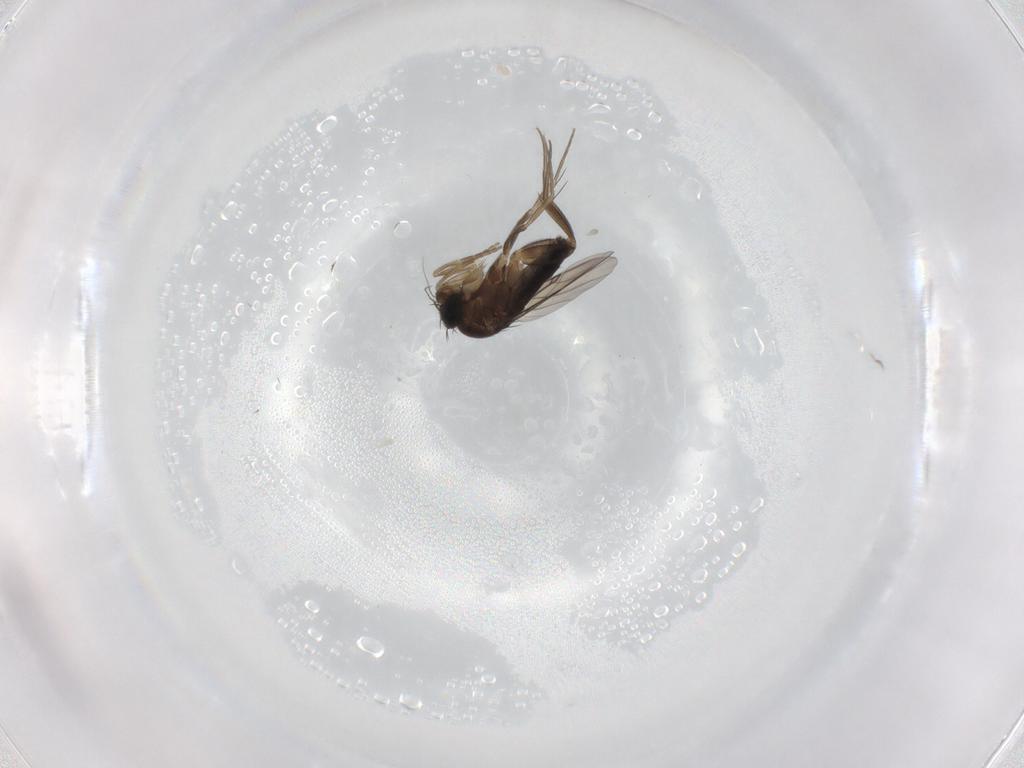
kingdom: Animalia
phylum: Arthropoda
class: Insecta
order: Diptera
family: Phoridae
